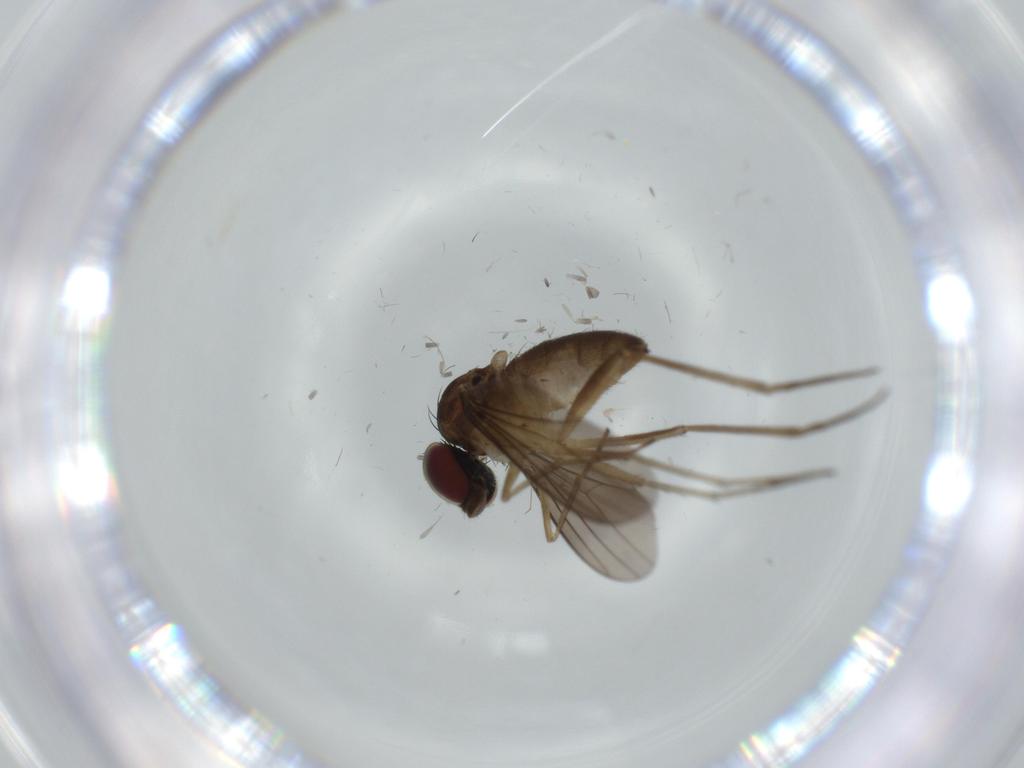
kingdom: Animalia
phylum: Arthropoda
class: Insecta
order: Diptera
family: Dolichopodidae
